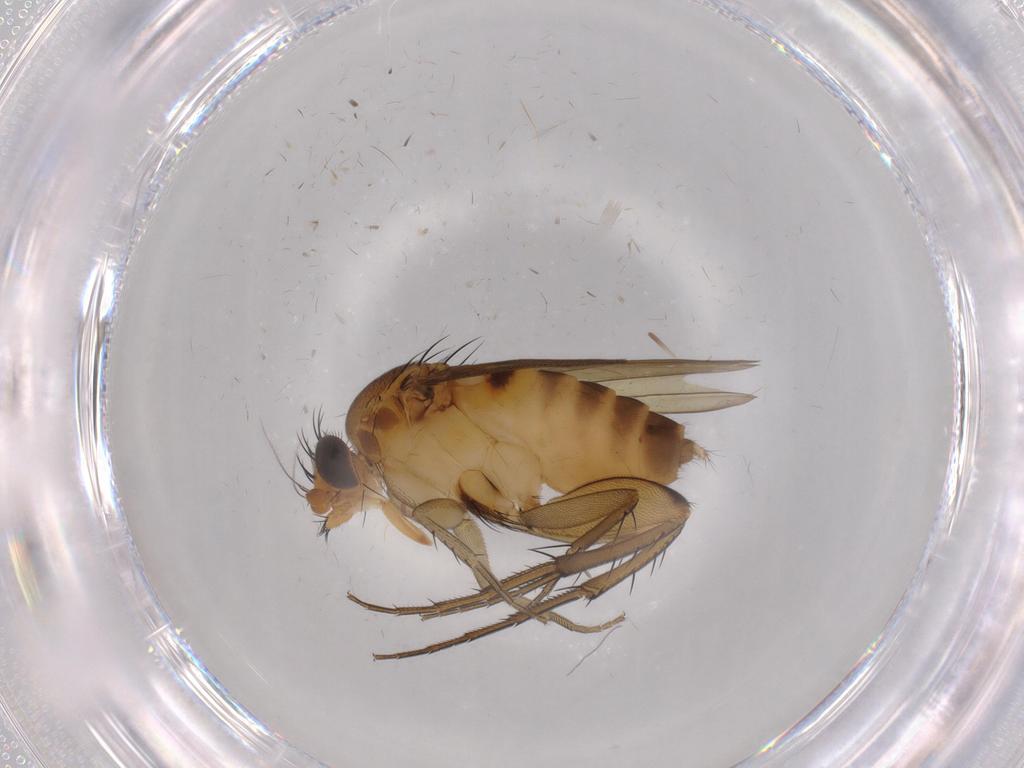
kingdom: Animalia
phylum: Arthropoda
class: Insecta
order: Diptera
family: Phoridae
